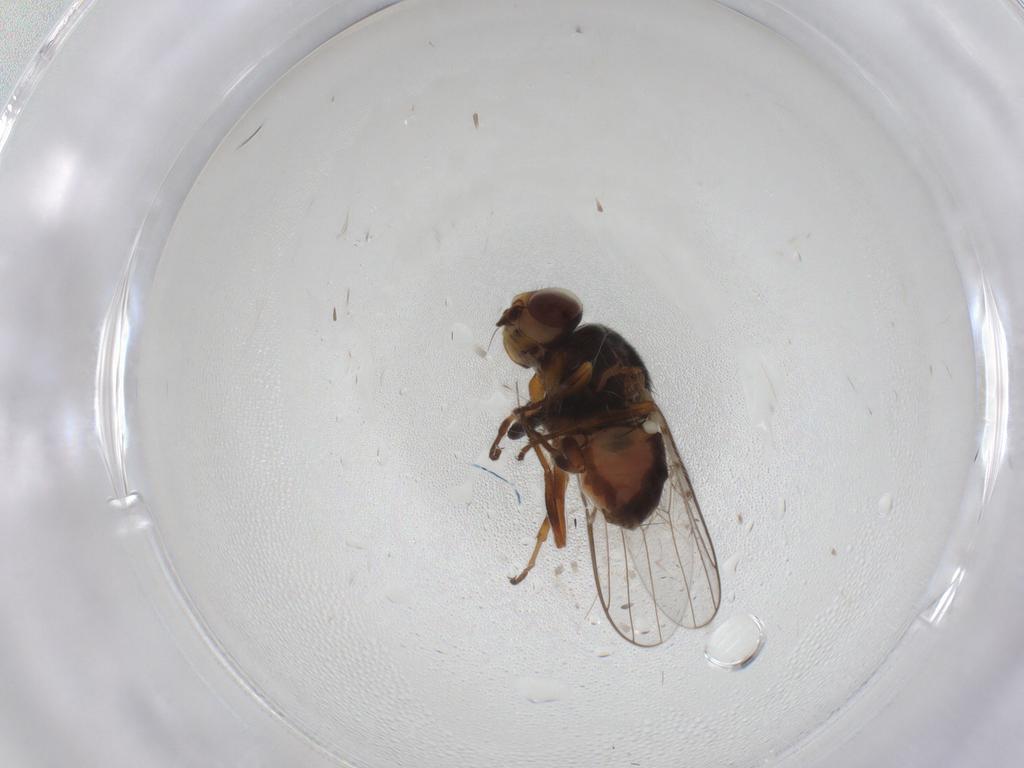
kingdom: Animalia
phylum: Arthropoda
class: Insecta
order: Diptera
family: Chloropidae
